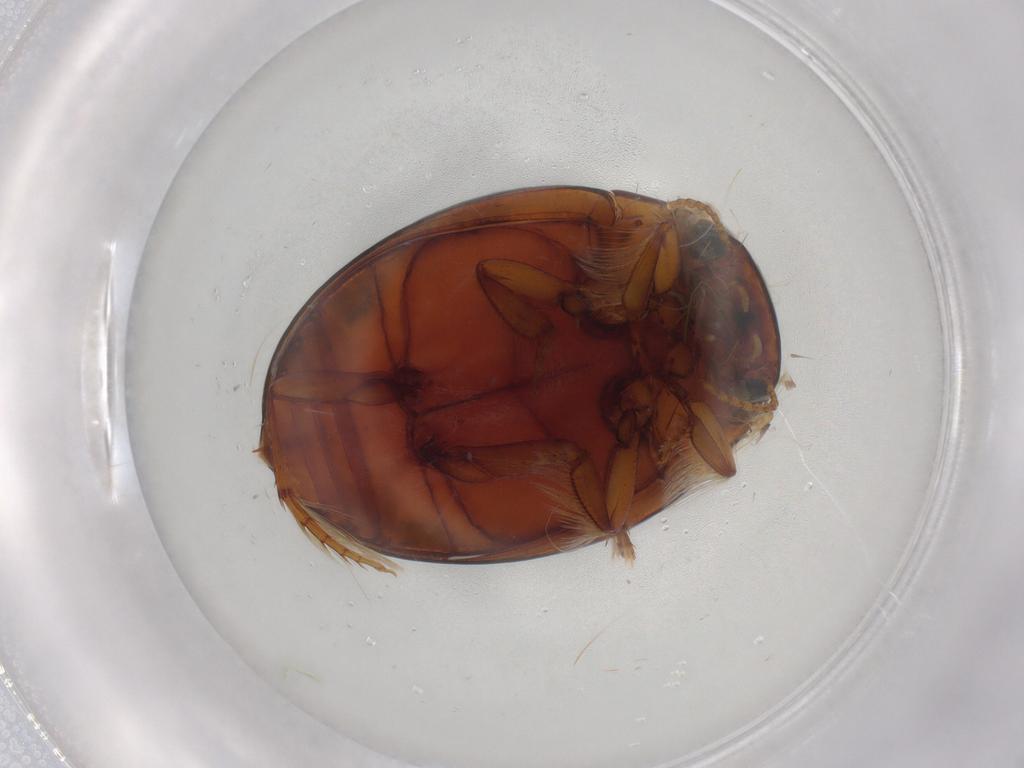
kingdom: Animalia
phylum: Arthropoda
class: Insecta
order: Coleoptera
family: Dytiscidae
